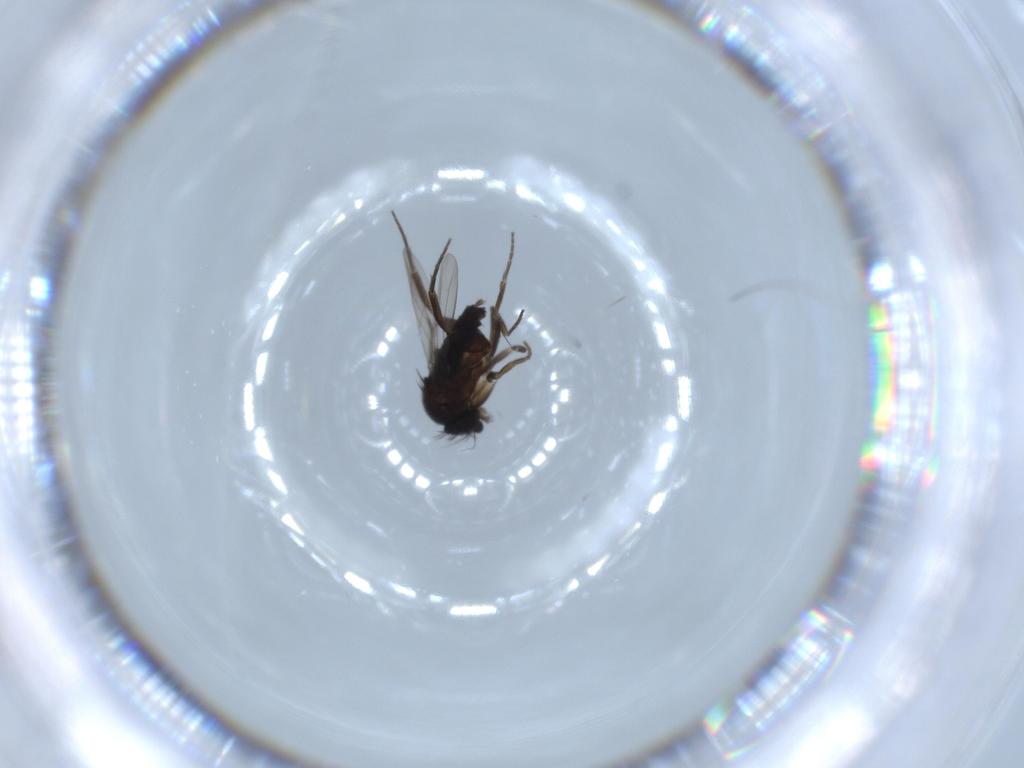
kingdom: Animalia
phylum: Arthropoda
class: Insecta
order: Diptera
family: Phoridae
